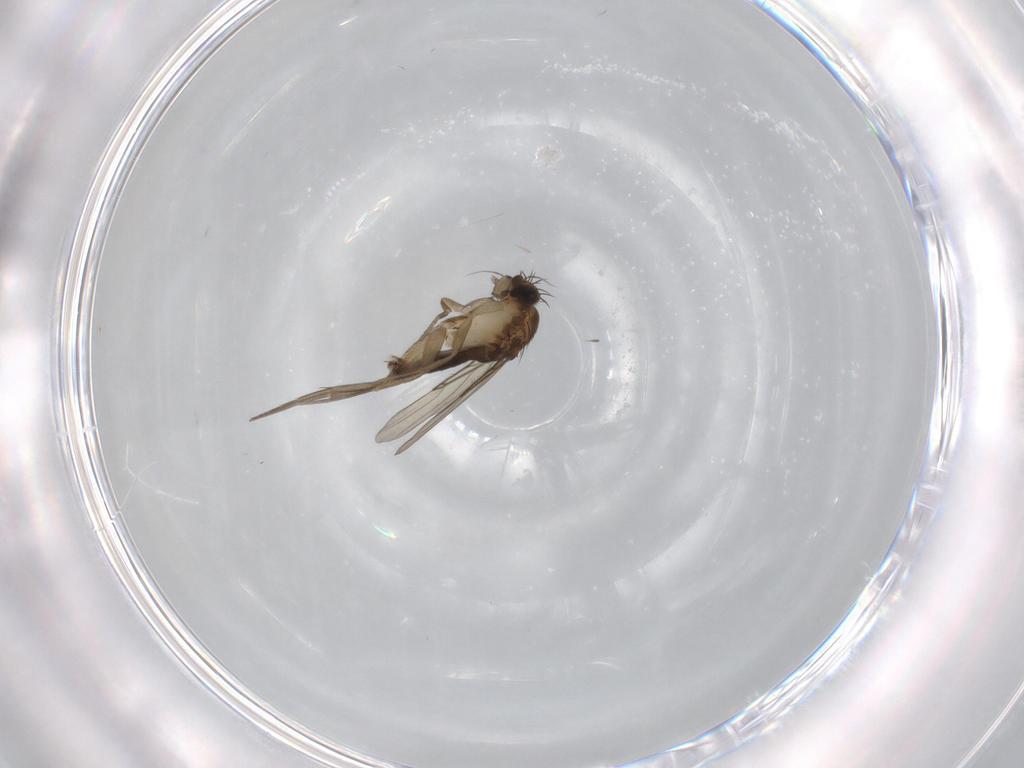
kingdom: Animalia
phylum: Arthropoda
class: Insecta
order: Diptera
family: Phoridae
